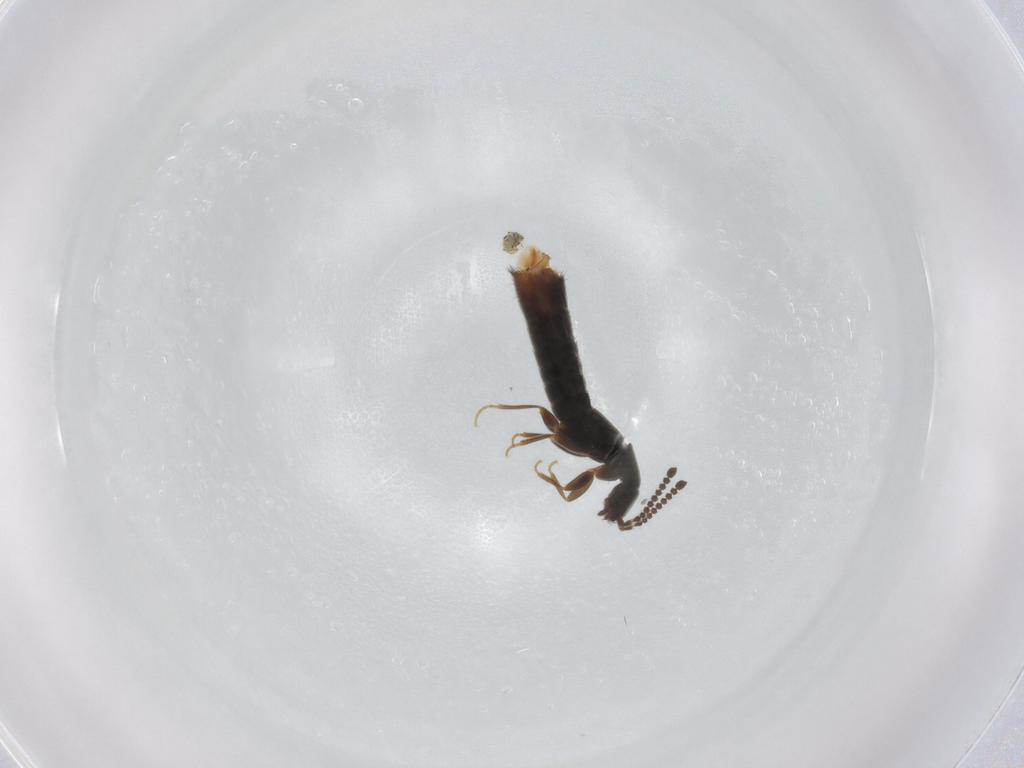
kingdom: Animalia
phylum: Arthropoda
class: Insecta
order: Coleoptera
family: Staphylinidae
